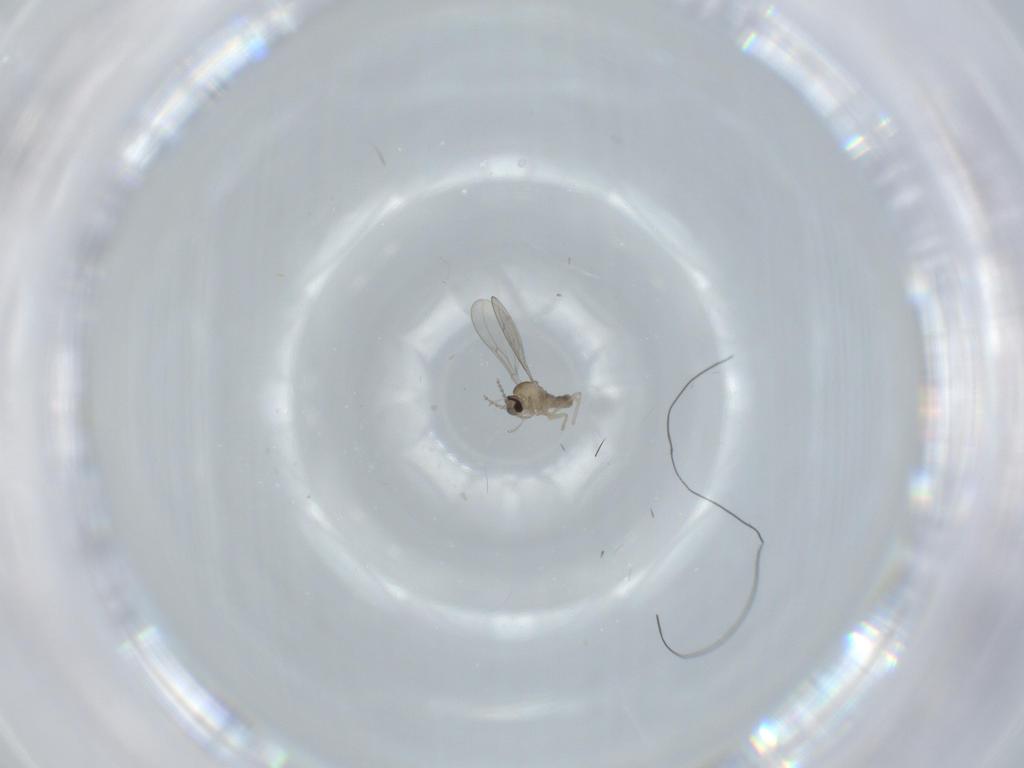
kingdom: Animalia
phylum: Arthropoda
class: Insecta
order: Diptera
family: Cecidomyiidae
